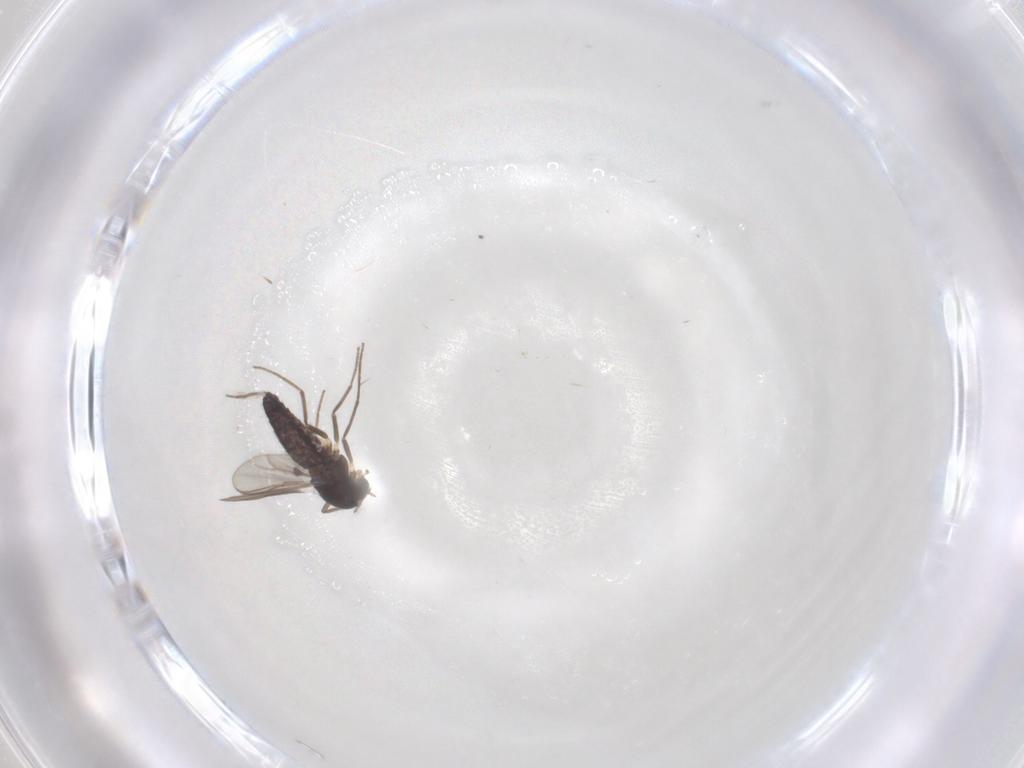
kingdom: Animalia
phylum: Arthropoda
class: Insecta
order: Diptera
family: Chironomidae
